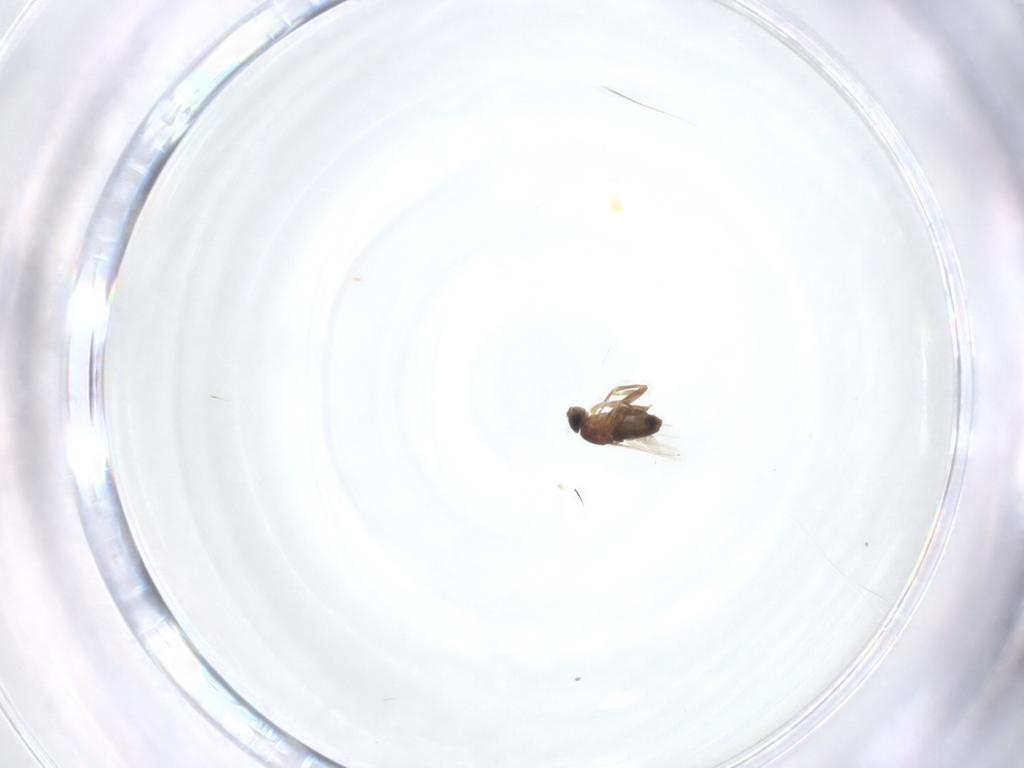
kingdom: Animalia
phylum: Arthropoda
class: Insecta
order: Diptera
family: Phoridae
